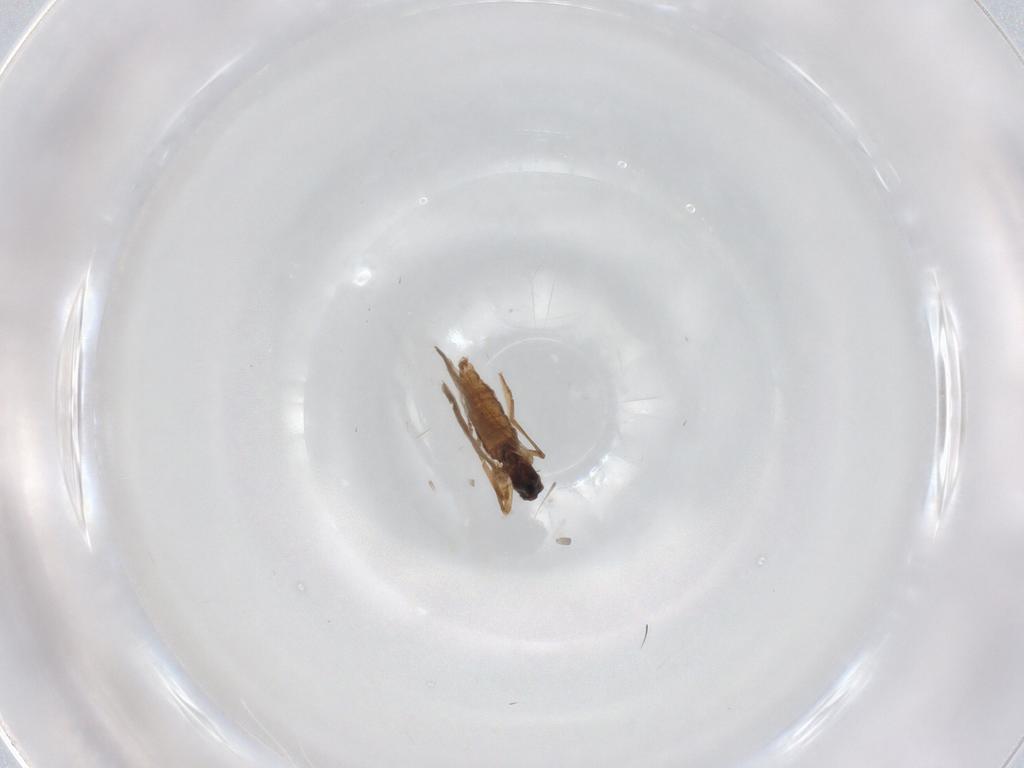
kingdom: Animalia
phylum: Arthropoda
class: Insecta
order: Diptera
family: Cecidomyiidae
